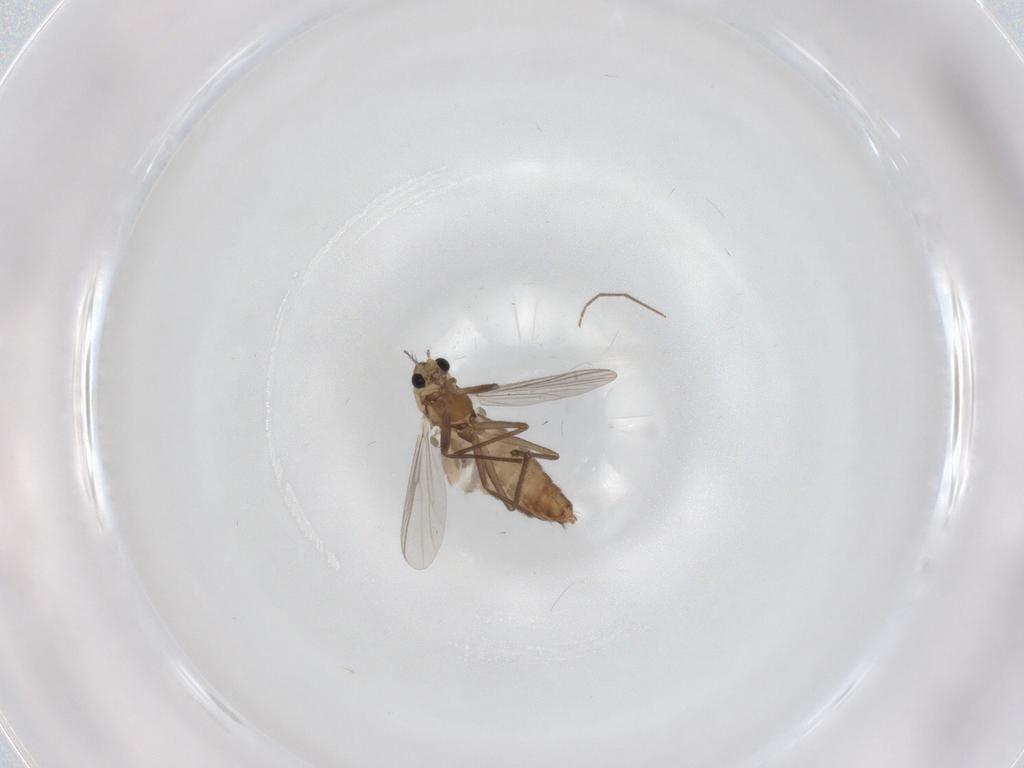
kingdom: Animalia
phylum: Arthropoda
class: Insecta
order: Diptera
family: Chironomidae
